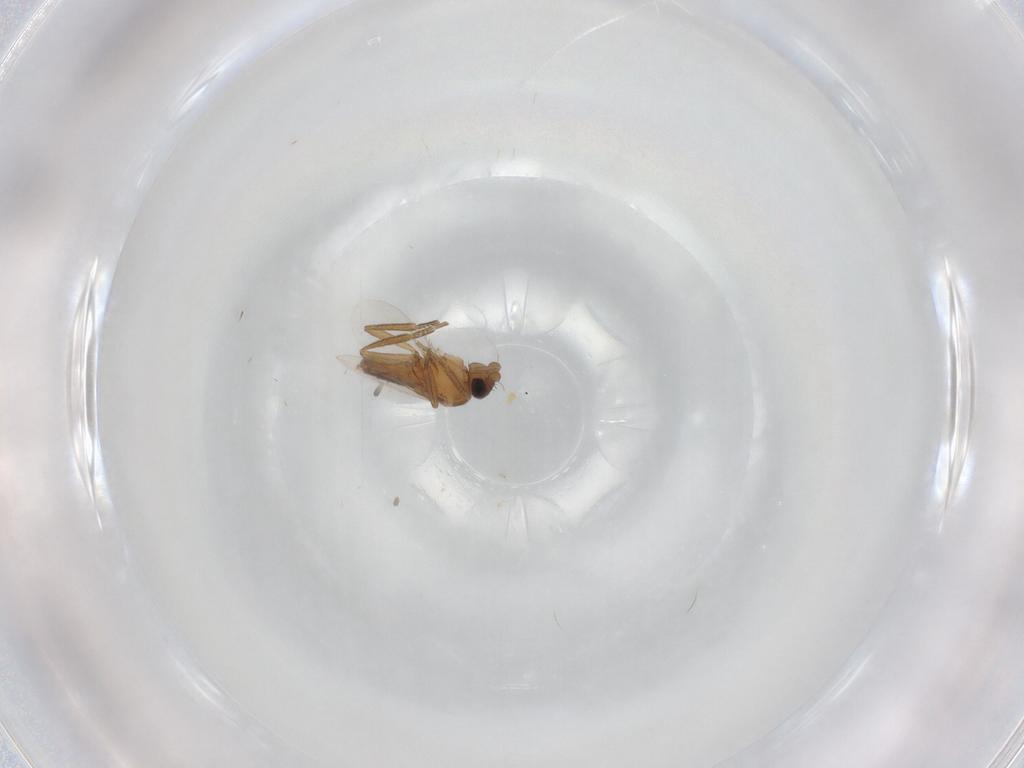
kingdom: Animalia
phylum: Arthropoda
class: Insecta
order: Diptera
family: Sciaridae
